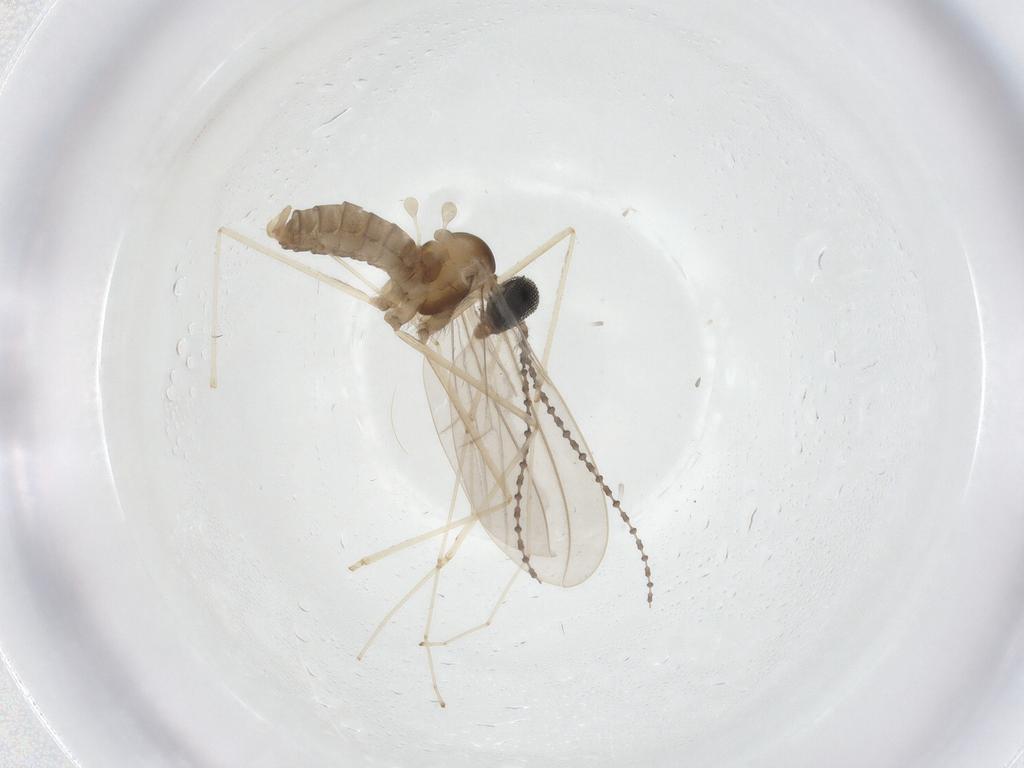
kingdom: Animalia
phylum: Arthropoda
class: Insecta
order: Diptera
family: Cecidomyiidae
